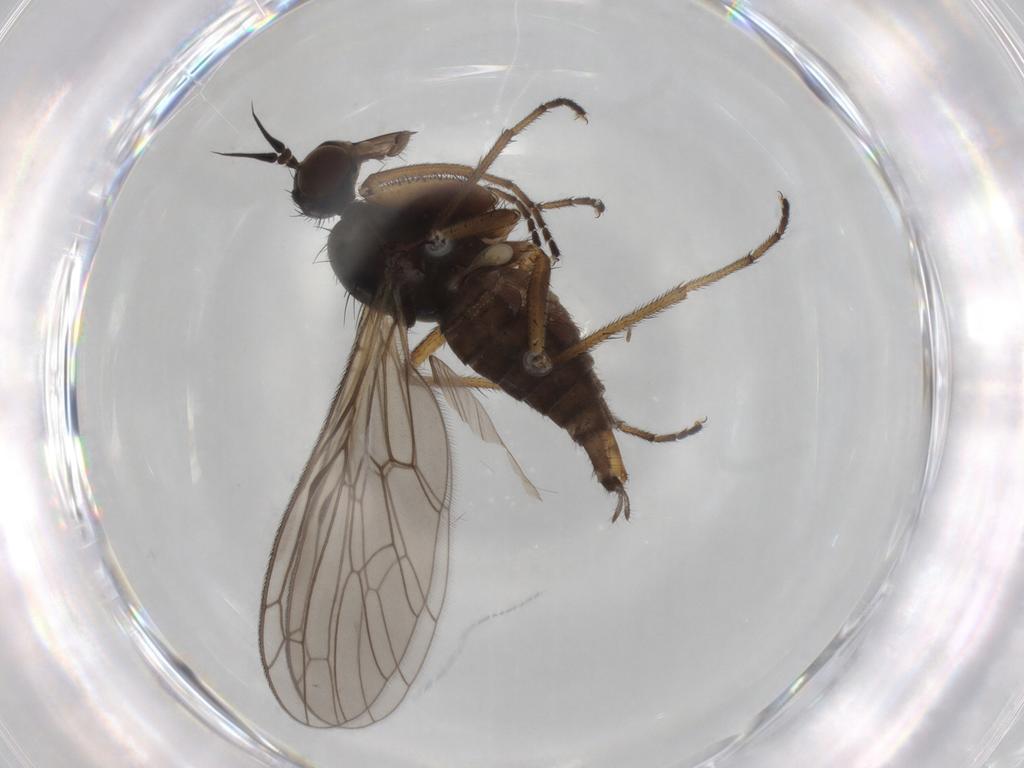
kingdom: Animalia
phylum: Arthropoda
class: Insecta
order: Diptera
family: Empididae
